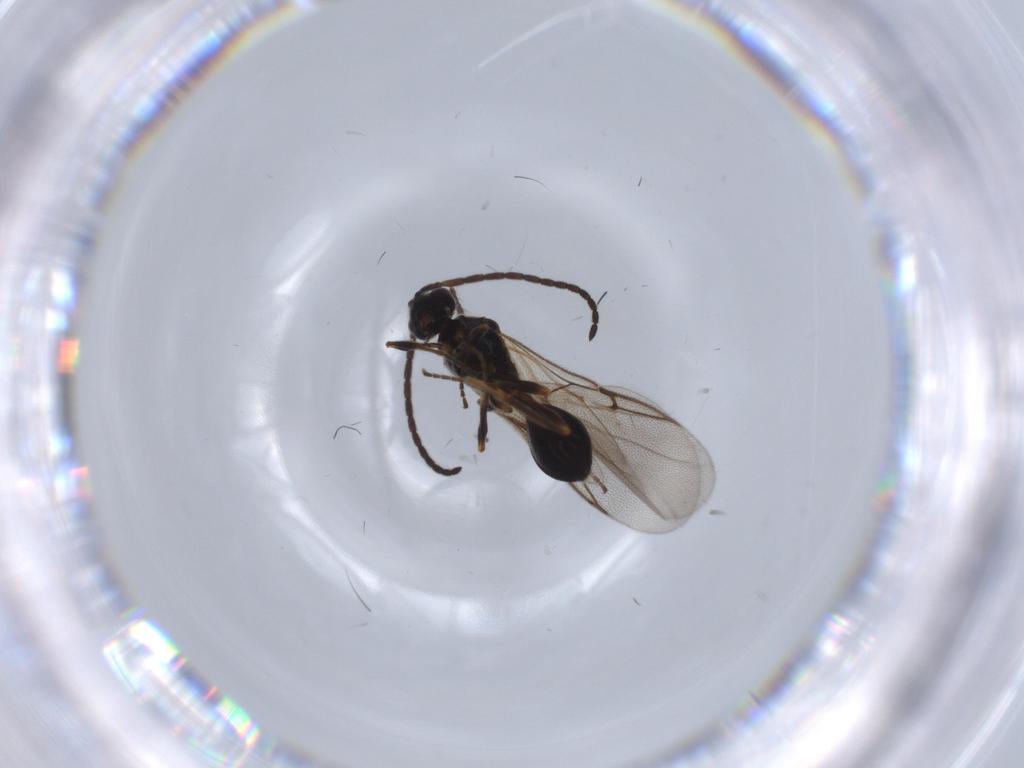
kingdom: Animalia
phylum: Arthropoda
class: Insecta
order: Hymenoptera
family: Diapriidae
